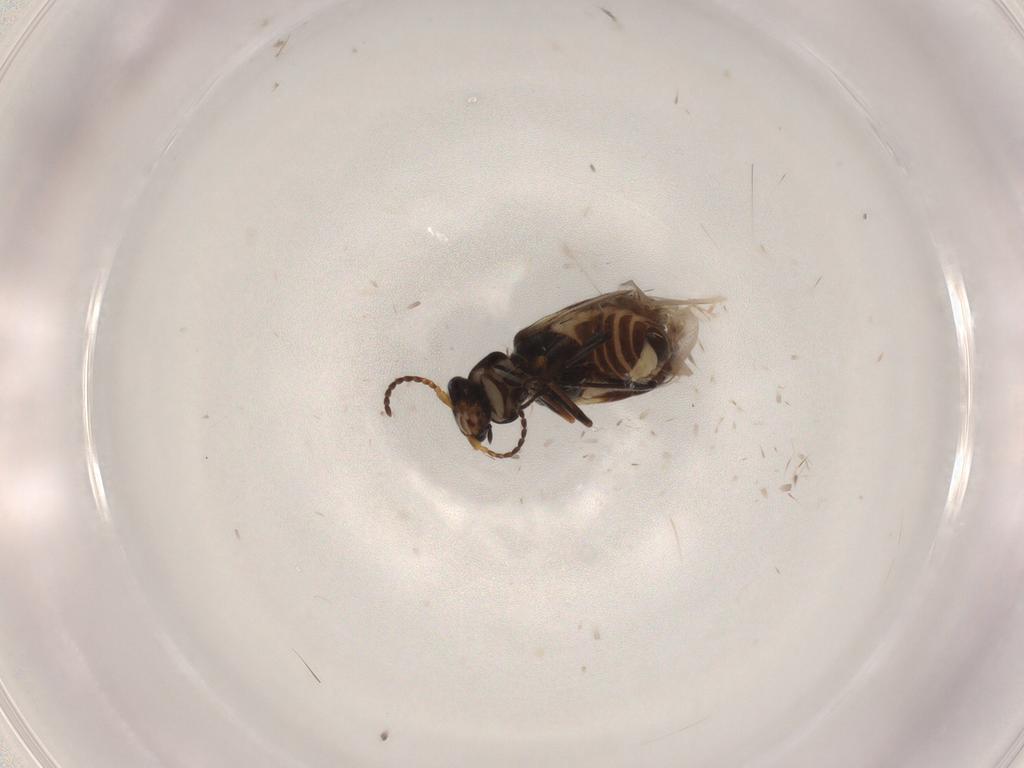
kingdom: Animalia
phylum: Arthropoda
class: Insecta
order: Coleoptera
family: Melyridae
